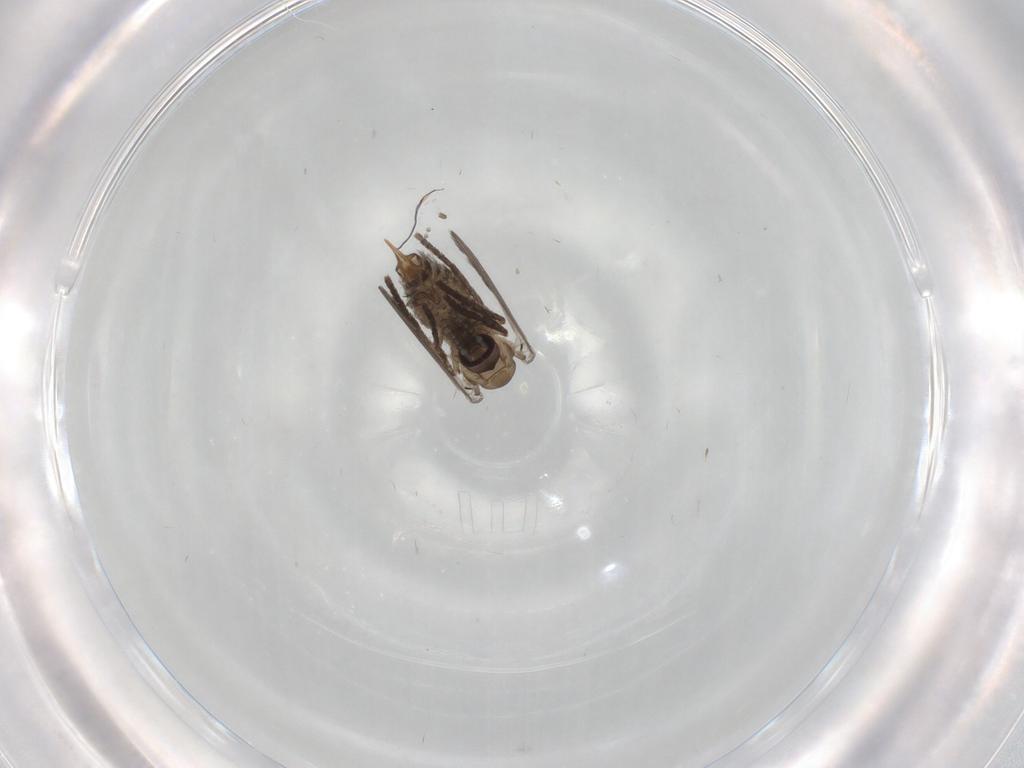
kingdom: Animalia
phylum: Arthropoda
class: Insecta
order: Diptera
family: Psychodidae
